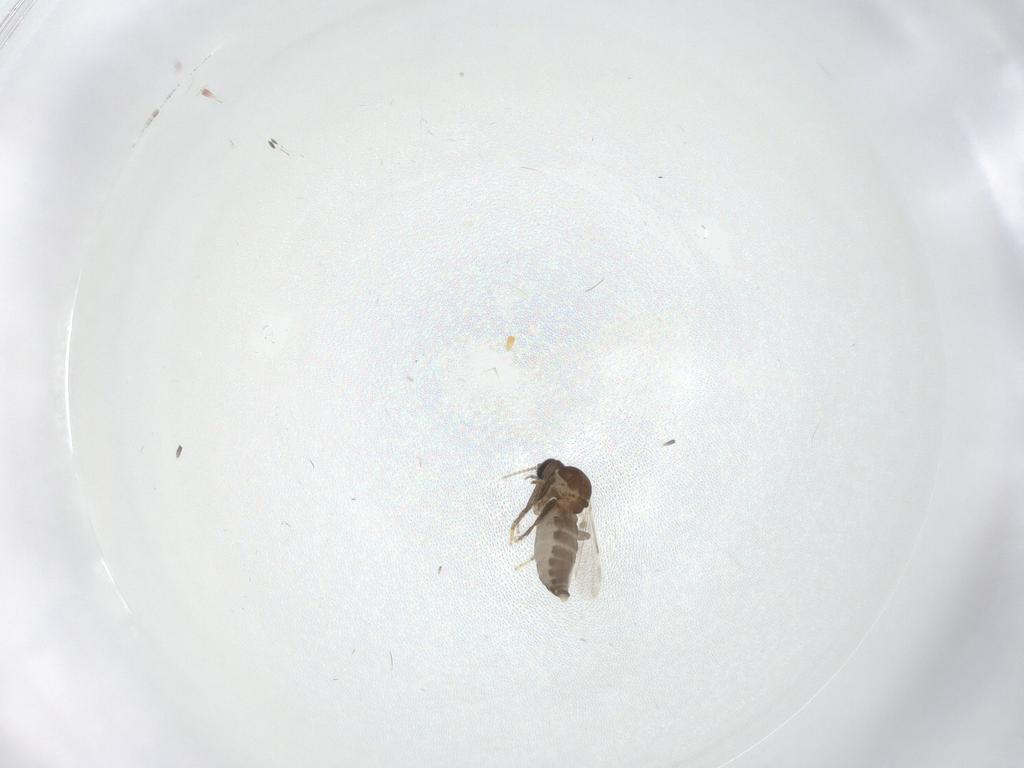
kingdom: Animalia
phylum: Arthropoda
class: Insecta
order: Diptera
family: Ceratopogonidae
